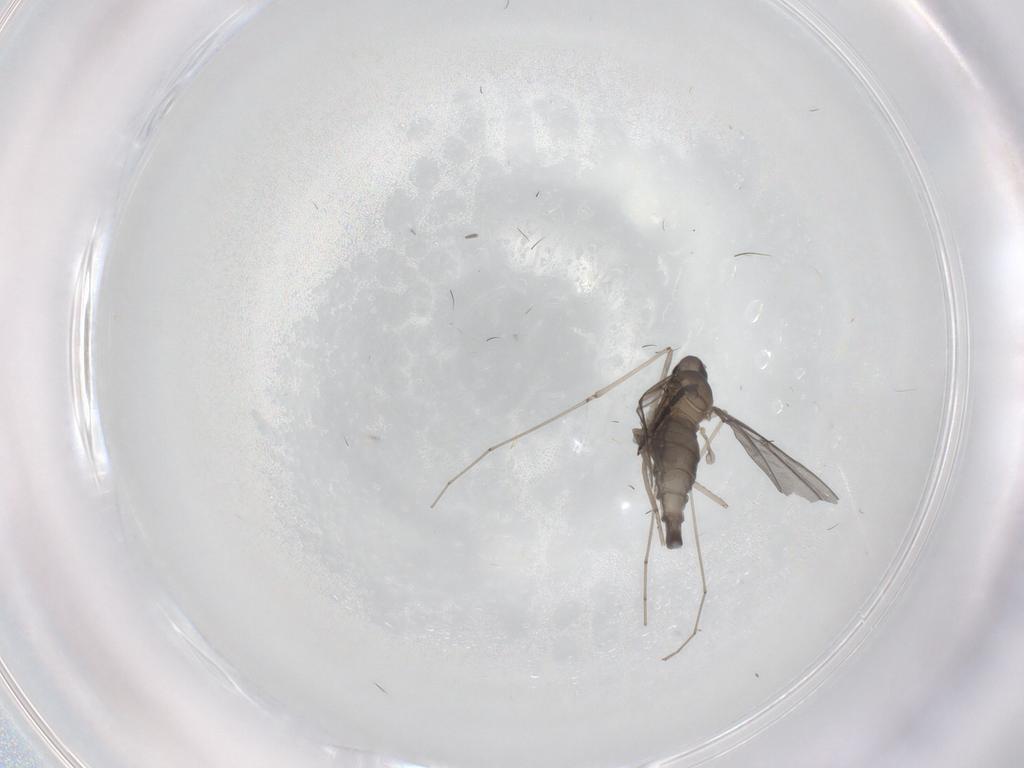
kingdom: Animalia
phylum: Arthropoda
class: Insecta
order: Diptera
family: Cecidomyiidae
